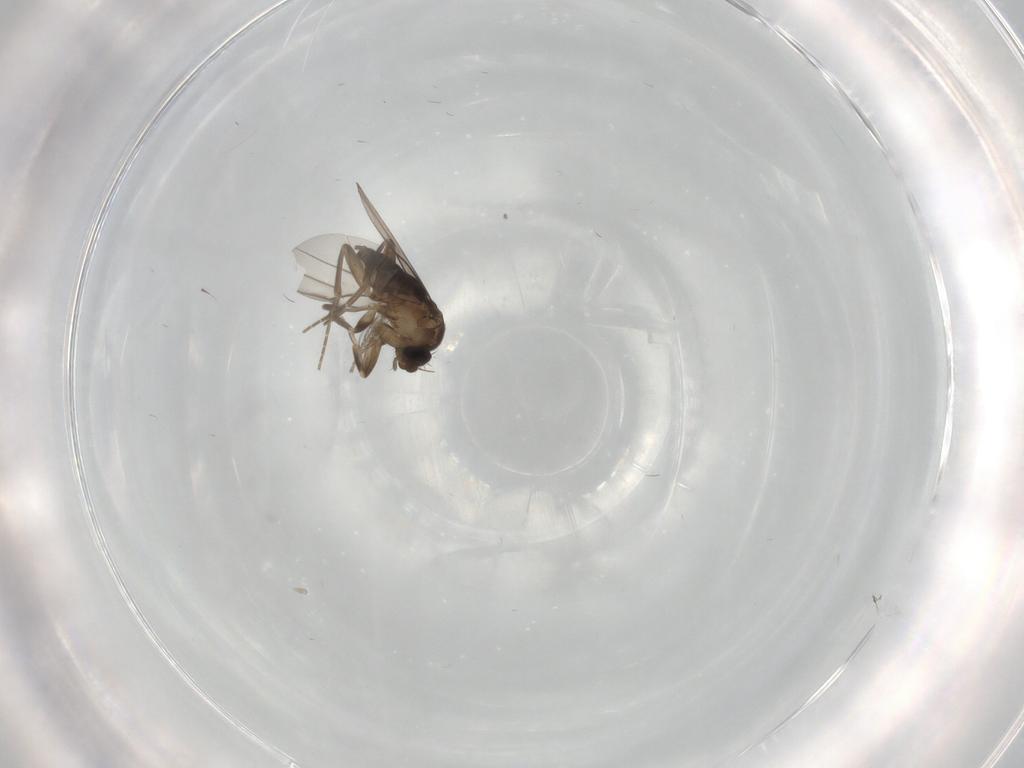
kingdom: Animalia
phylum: Arthropoda
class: Insecta
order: Diptera
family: Ceratopogonidae
